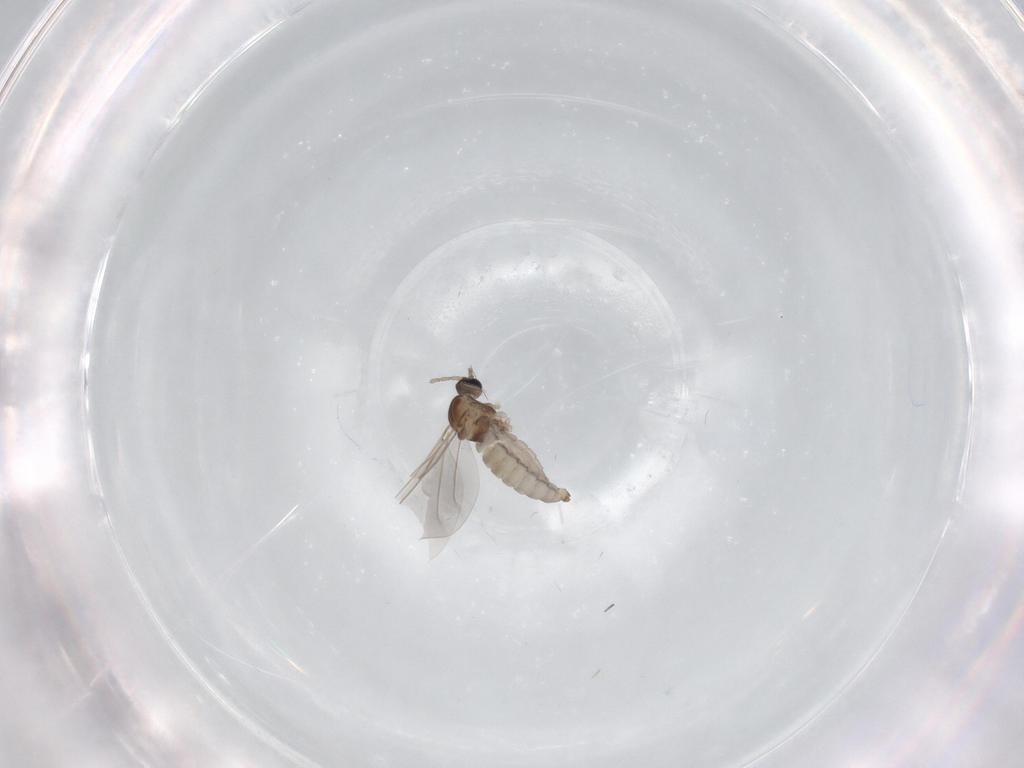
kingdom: Animalia
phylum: Arthropoda
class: Insecta
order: Diptera
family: Cecidomyiidae
